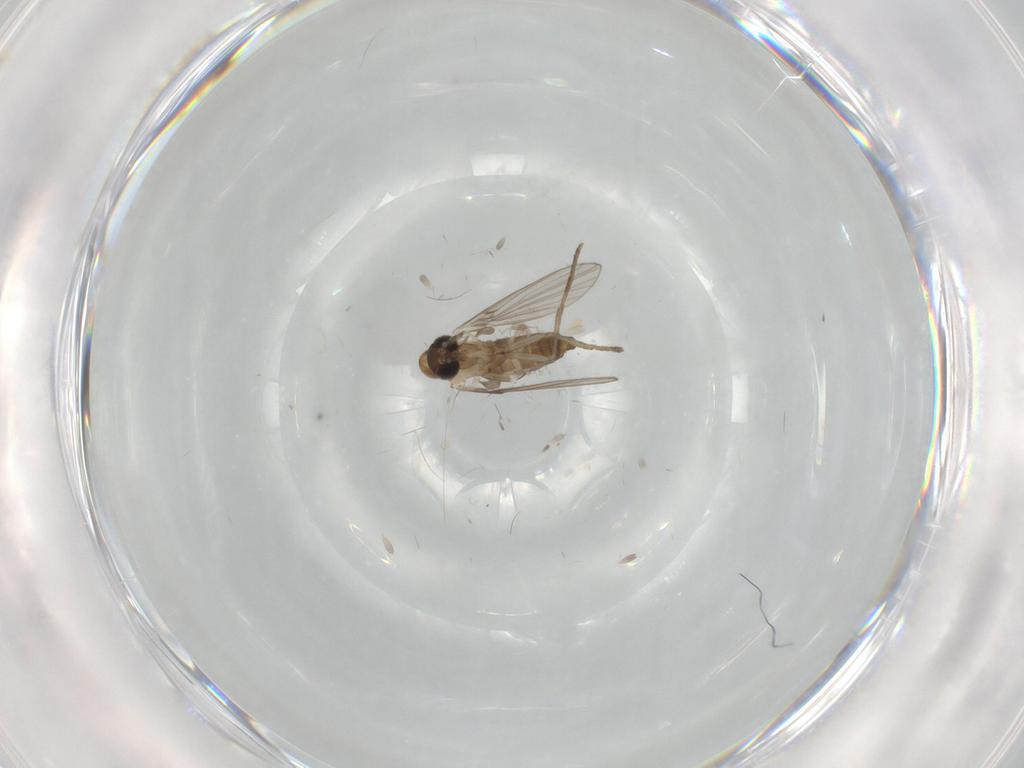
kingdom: Animalia
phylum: Arthropoda
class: Insecta
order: Diptera
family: Psychodidae
